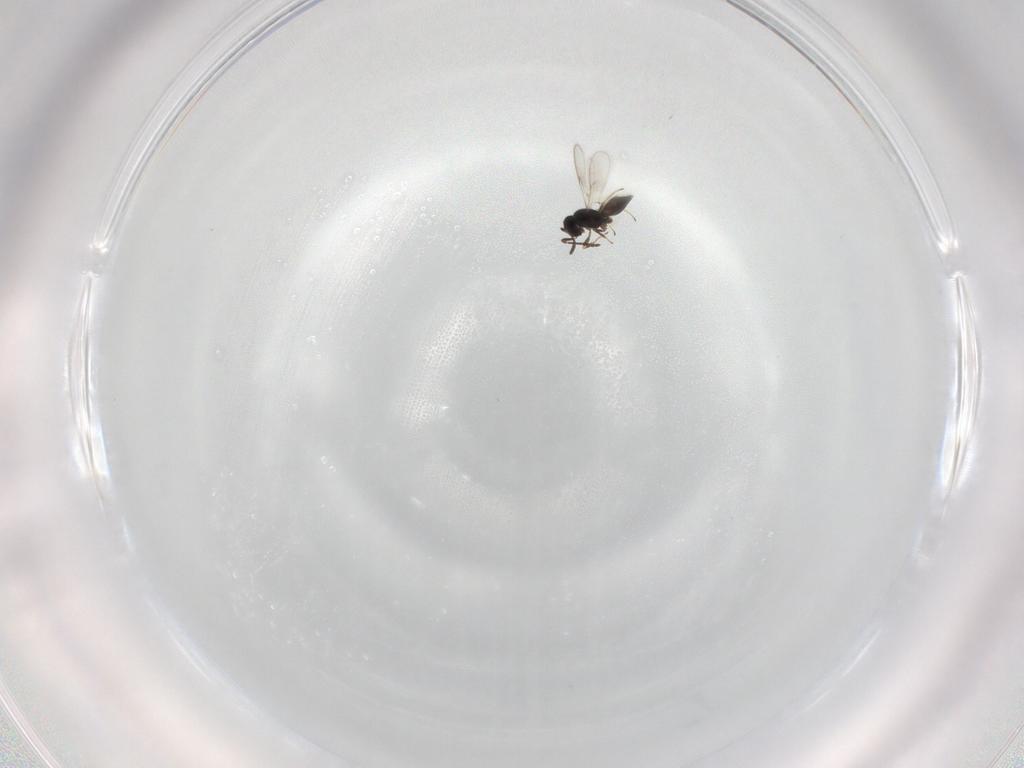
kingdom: Animalia
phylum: Arthropoda
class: Insecta
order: Hymenoptera
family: Scelionidae
